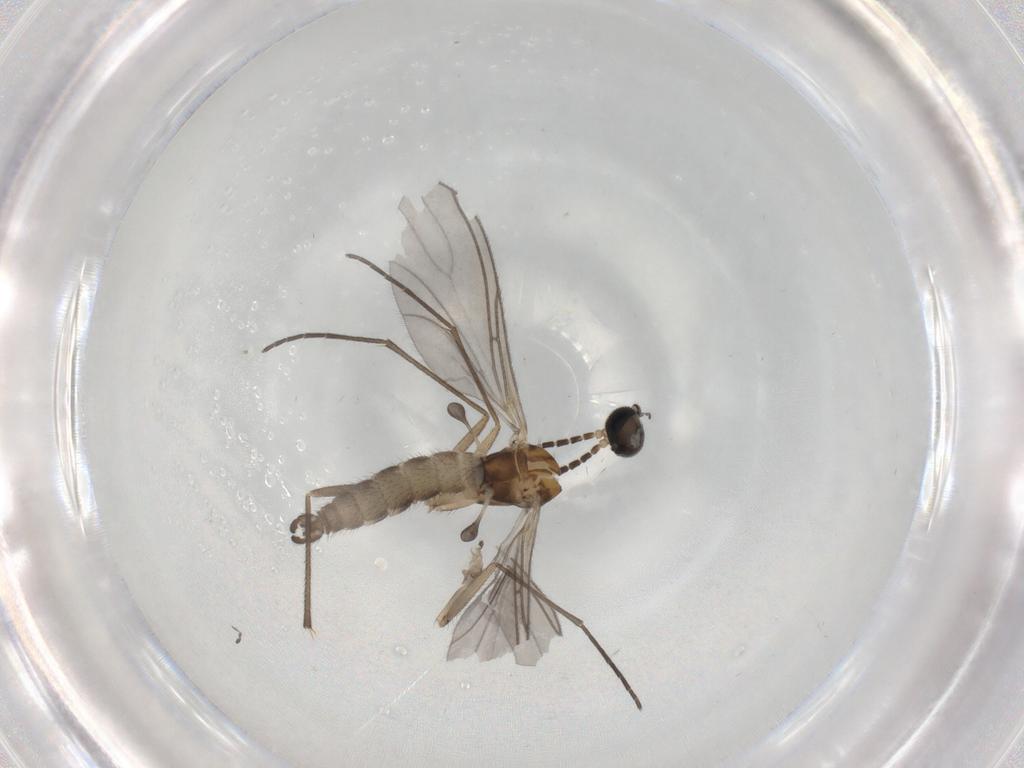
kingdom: Animalia
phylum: Arthropoda
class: Insecta
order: Diptera
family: Sciaridae
